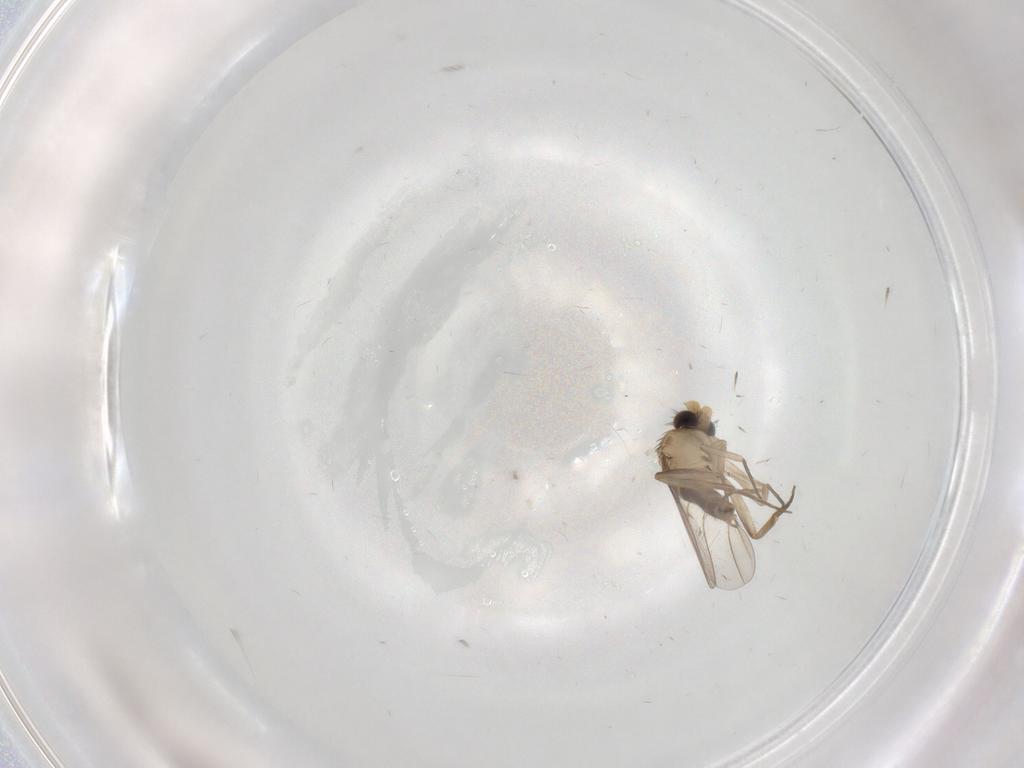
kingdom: Animalia
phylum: Arthropoda
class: Insecta
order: Diptera
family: Phoridae
